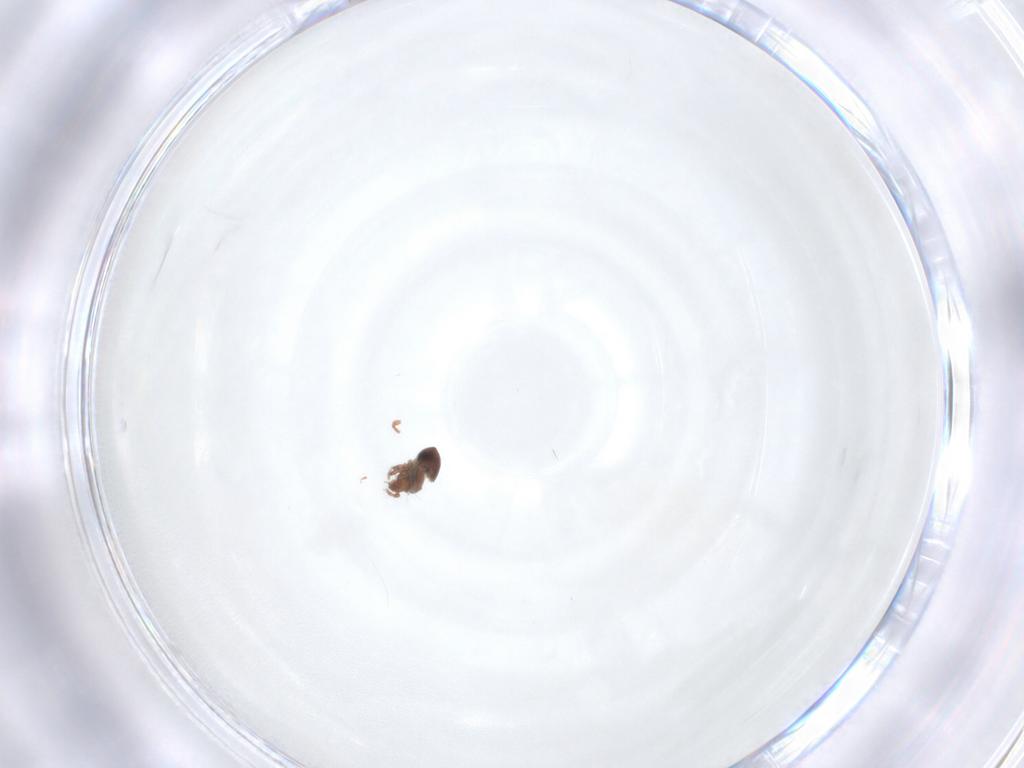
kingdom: Animalia
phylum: Arthropoda
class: Arachnida
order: Sarcoptiformes
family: Ceratozetidae
